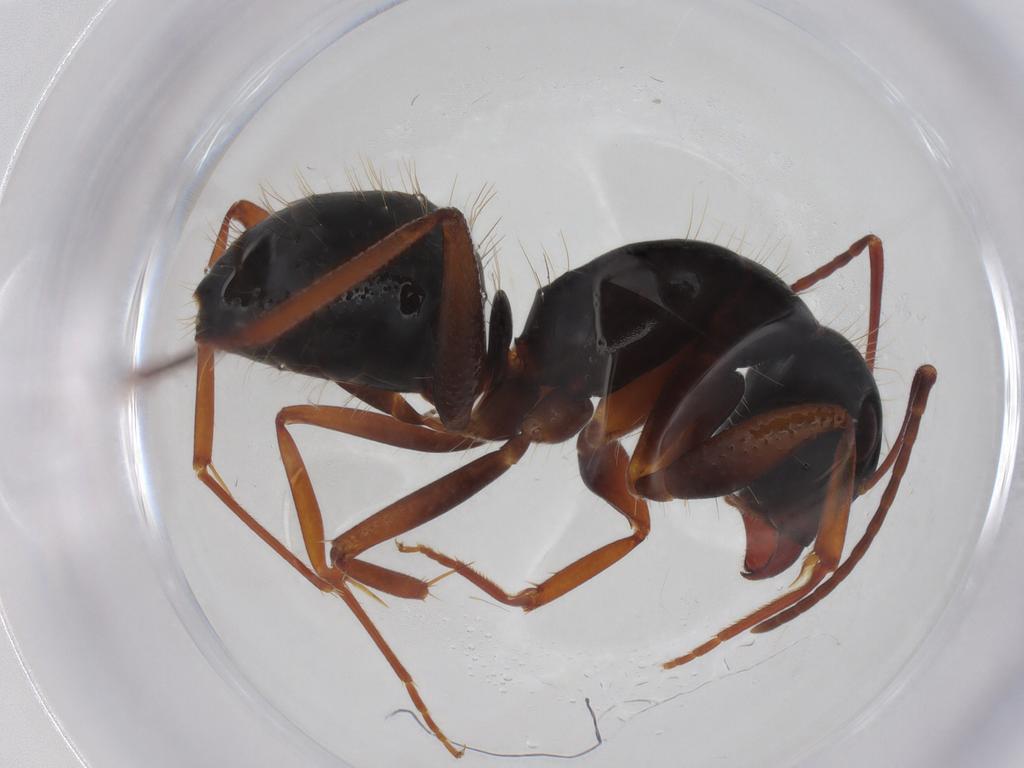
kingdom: Animalia
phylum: Arthropoda
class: Insecta
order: Hymenoptera
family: Formicidae
